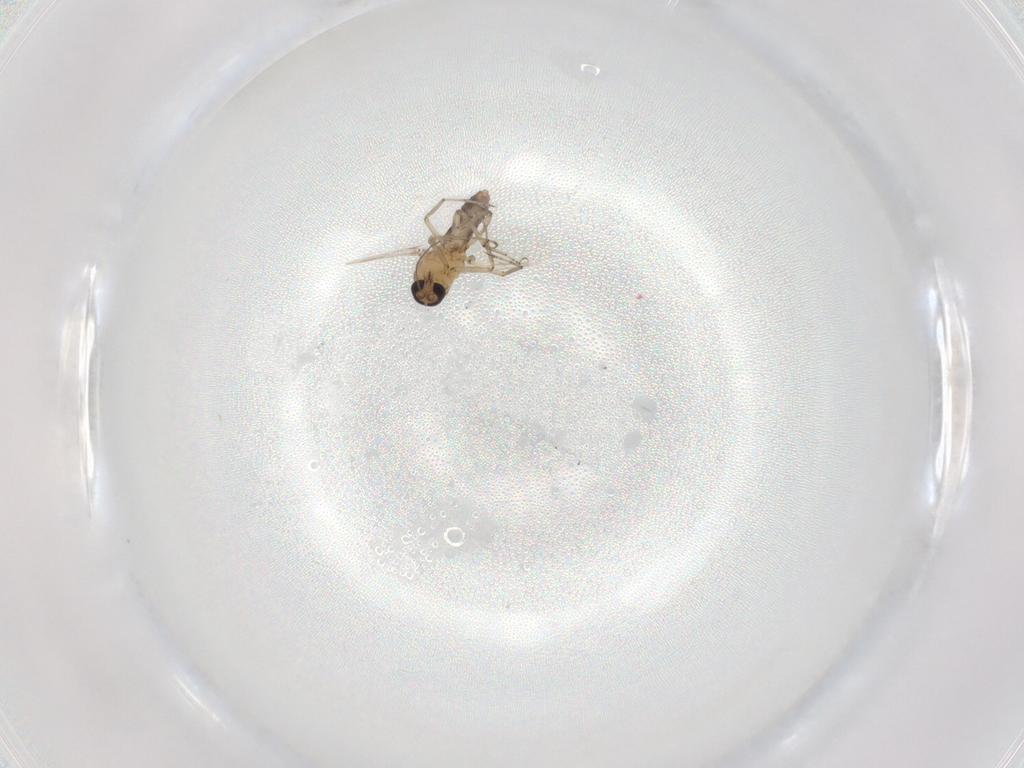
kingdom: Animalia
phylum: Arthropoda
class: Insecta
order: Diptera
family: Ceratopogonidae
